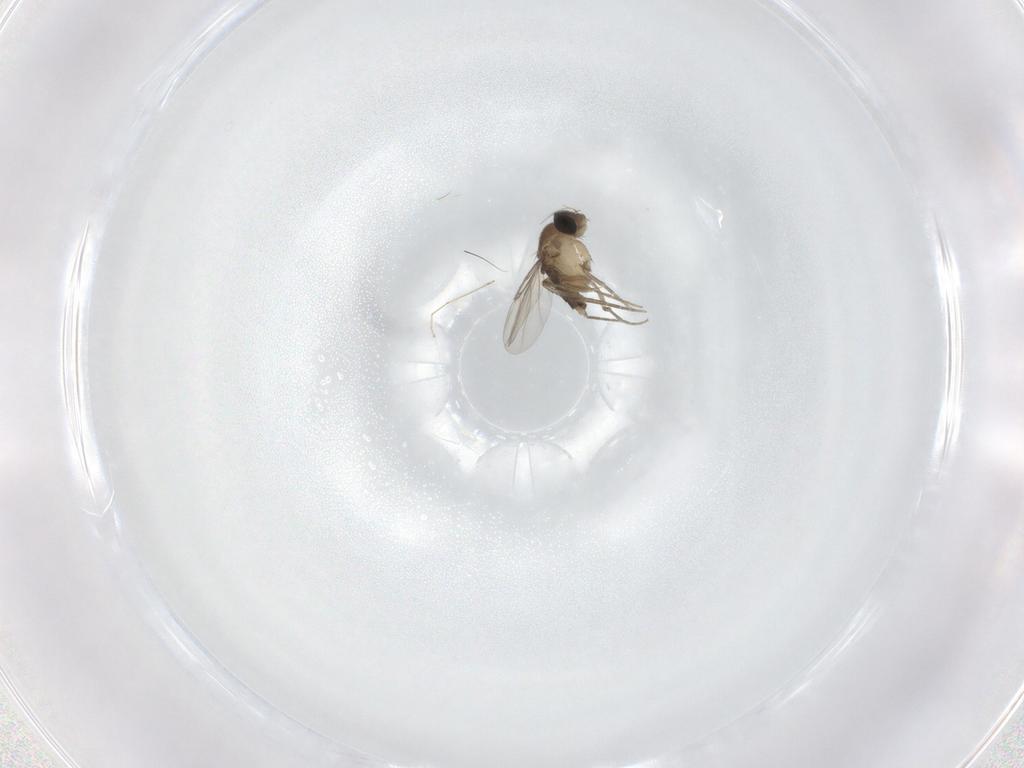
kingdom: Animalia
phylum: Arthropoda
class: Insecta
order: Diptera
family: Phoridae
